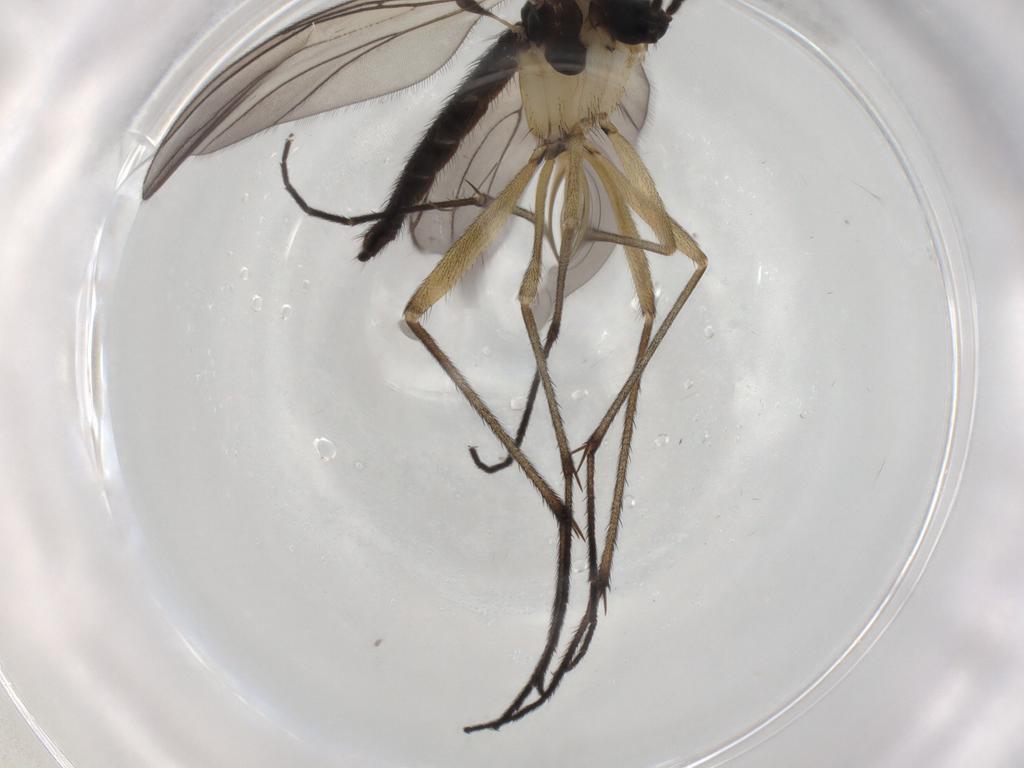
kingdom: Animalia
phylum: Arthropoda
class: Insecta
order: Diptera
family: Sciaridae
